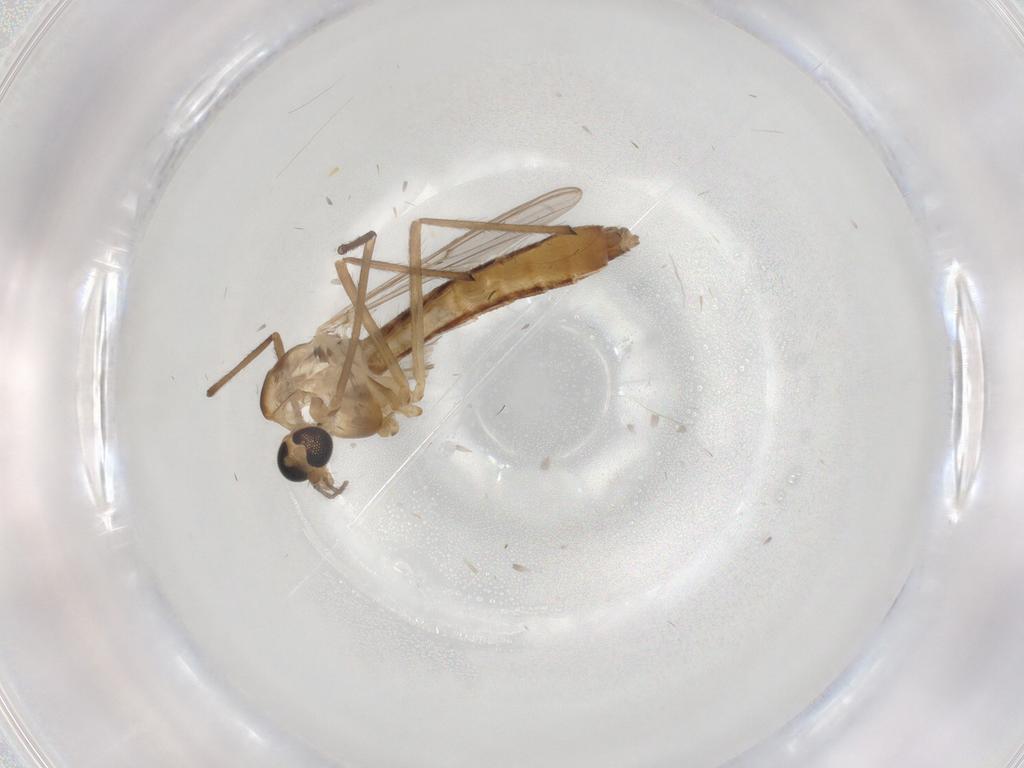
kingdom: Animalia
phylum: Arthropoda
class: Insecta
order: Diptera
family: Chironomidae
